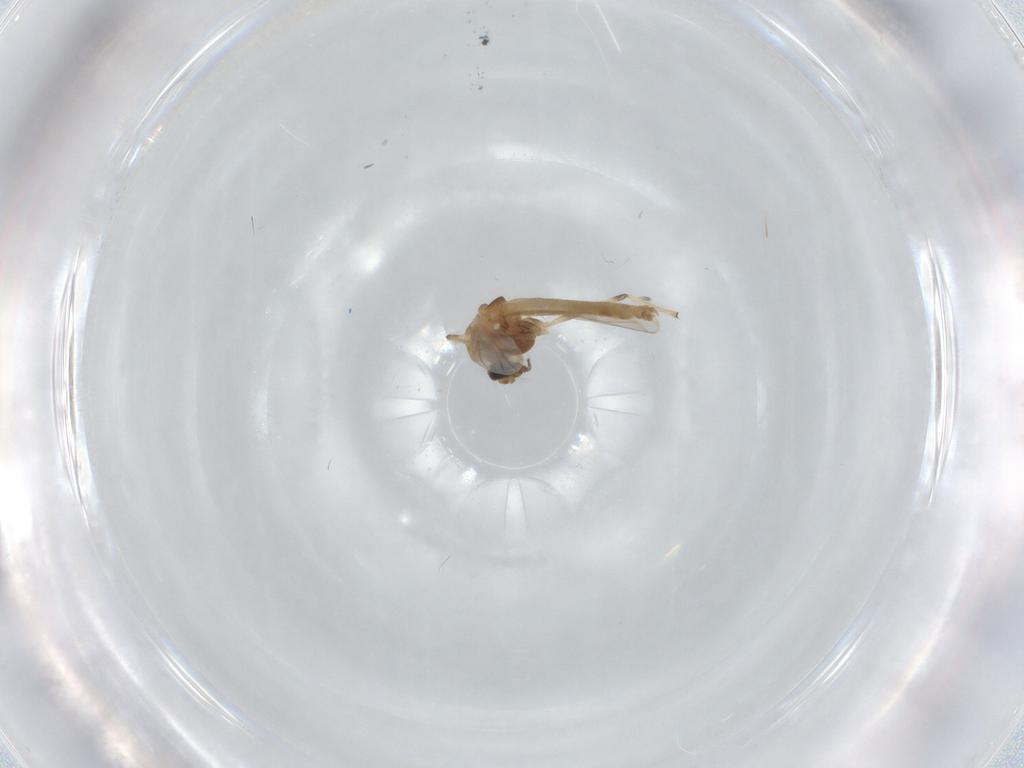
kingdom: Animalia
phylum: Arthropoda
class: Insecta
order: Diptera
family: Chironomidae
